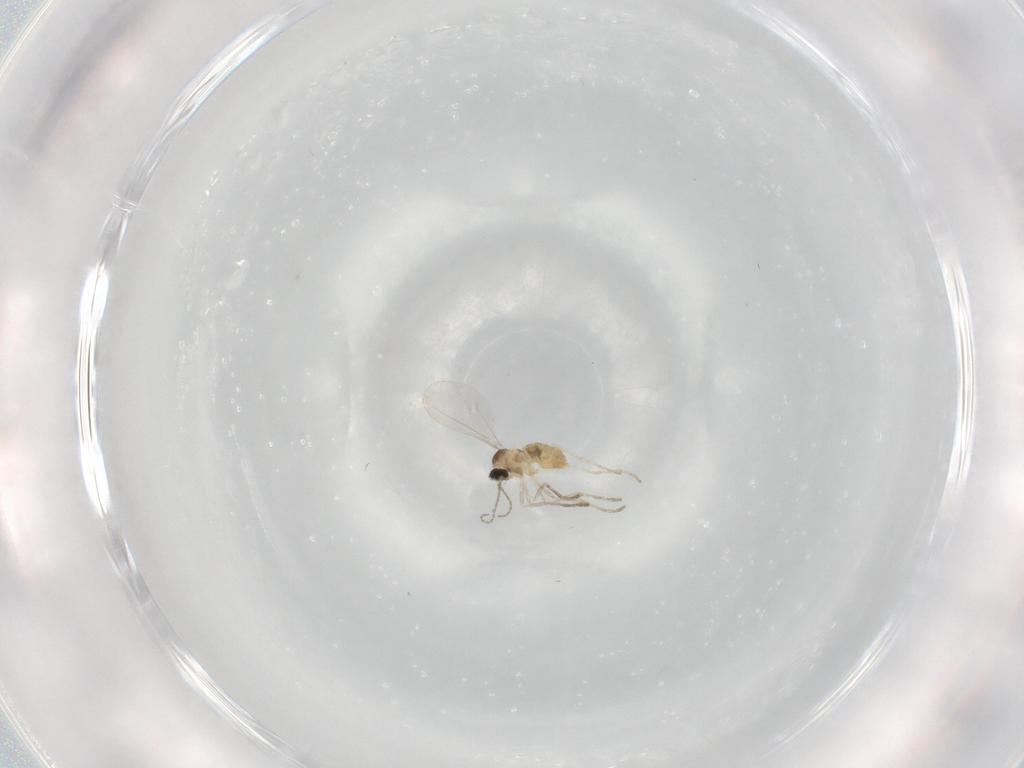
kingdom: Animalia
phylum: Arthropoda
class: Insecta
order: Diptera
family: Cecidomyiidae
